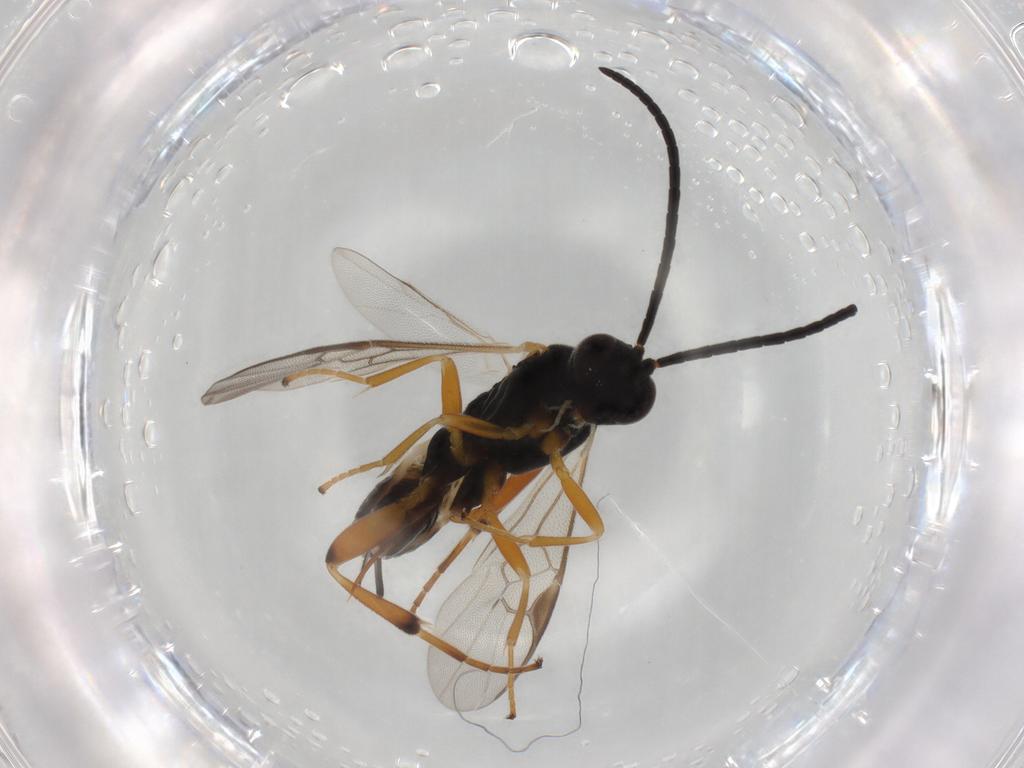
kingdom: Animalia
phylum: Arthropoda
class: Insecta
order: Hymenoptera
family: Braconidae
